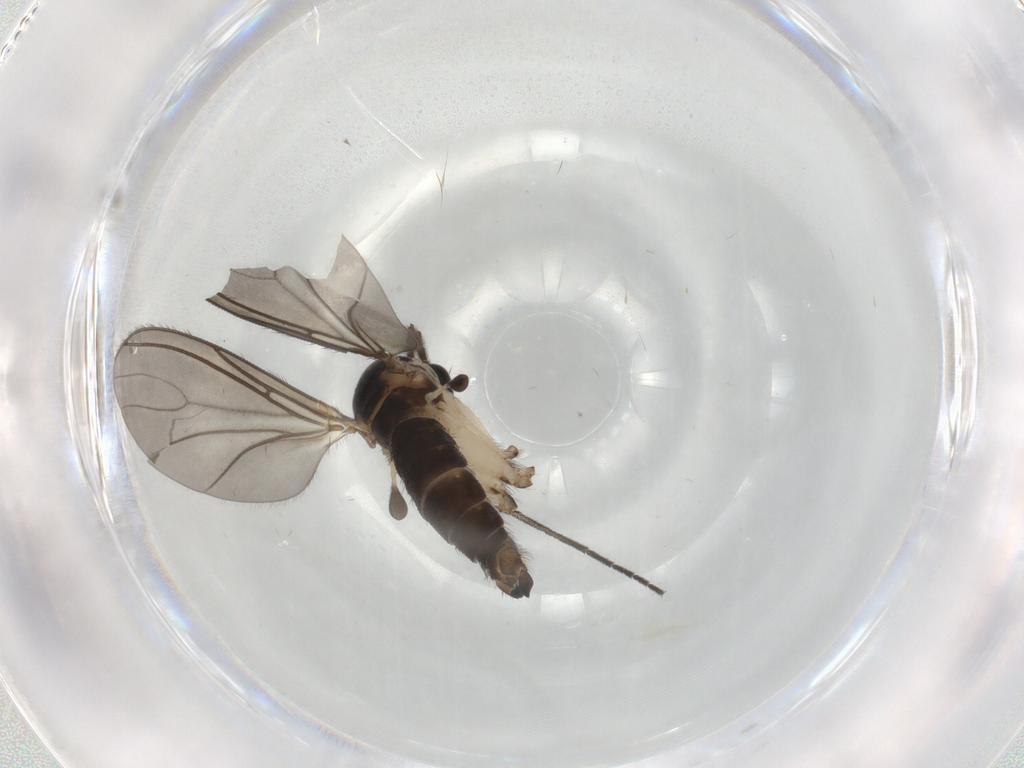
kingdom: Animalia
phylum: Arthropoda
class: Insecta
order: Diptera
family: Sciaridae
